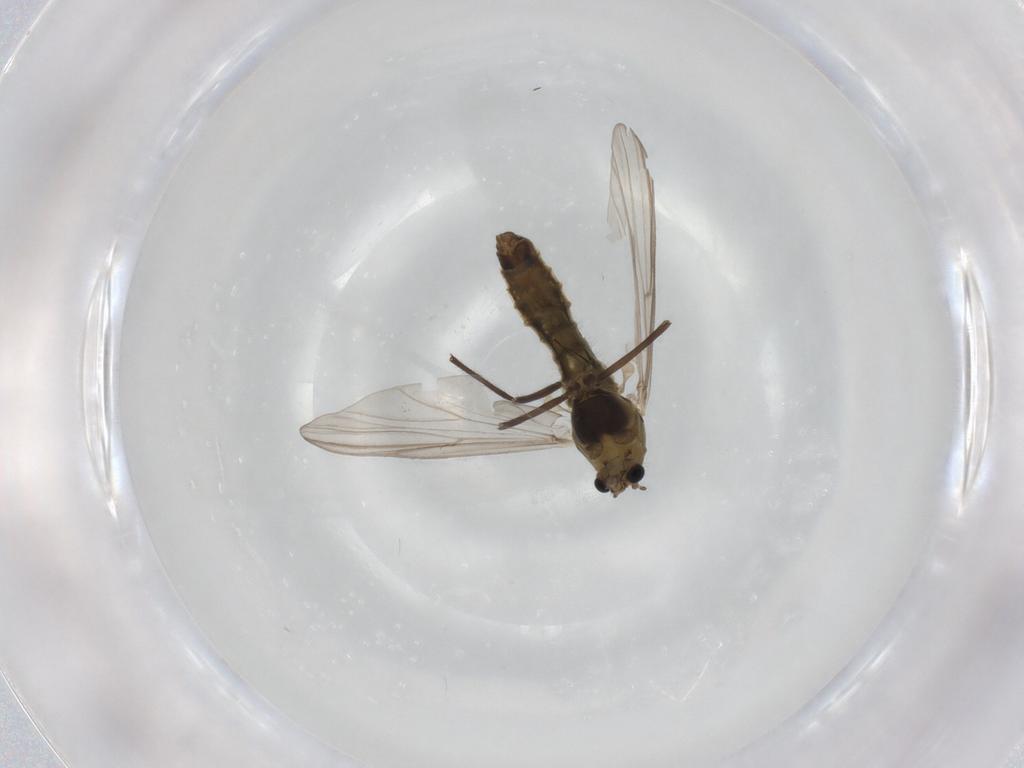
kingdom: Animalia
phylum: Arthropoda
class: Insecta
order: Diptera
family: Chironomidae
